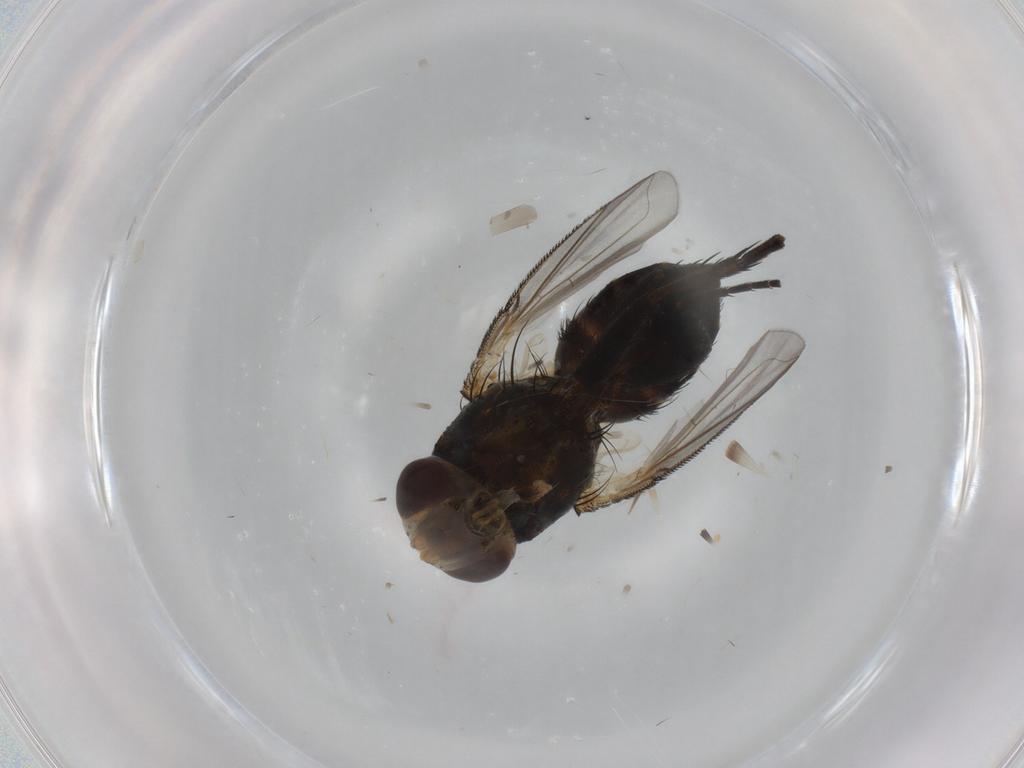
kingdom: Animalia
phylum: Arthropoda
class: Insecta
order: Diptera
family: Tachinidae
